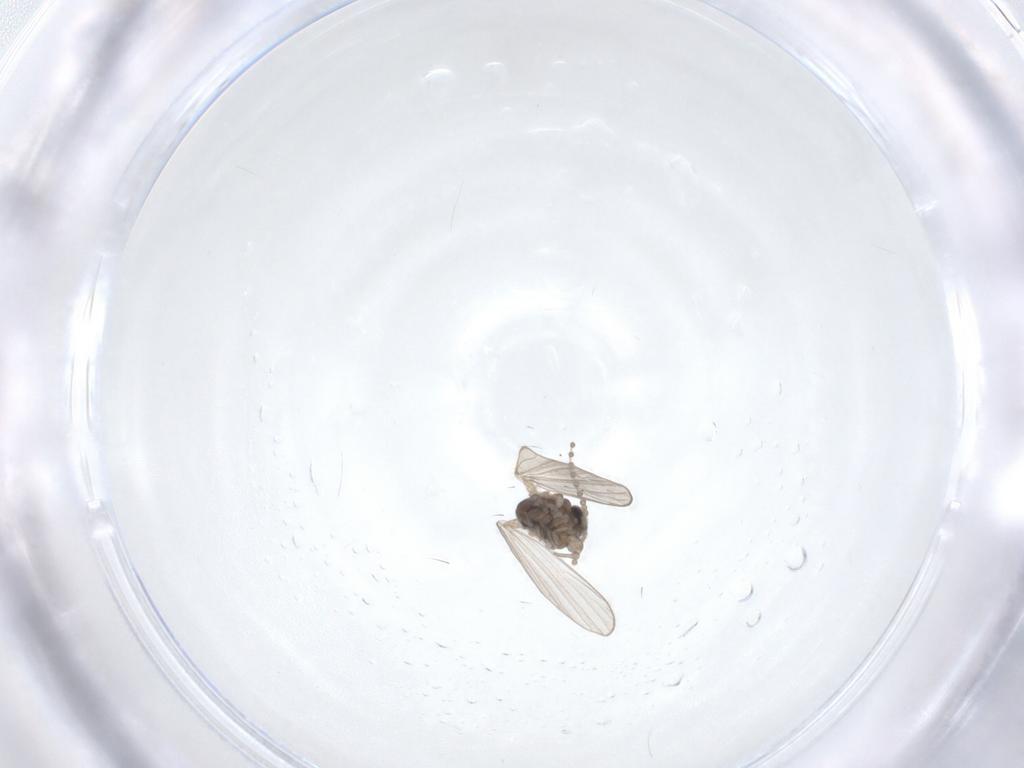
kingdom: Animalia
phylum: Arthropoda
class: Insecta
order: Diptera
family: Psychodidae
